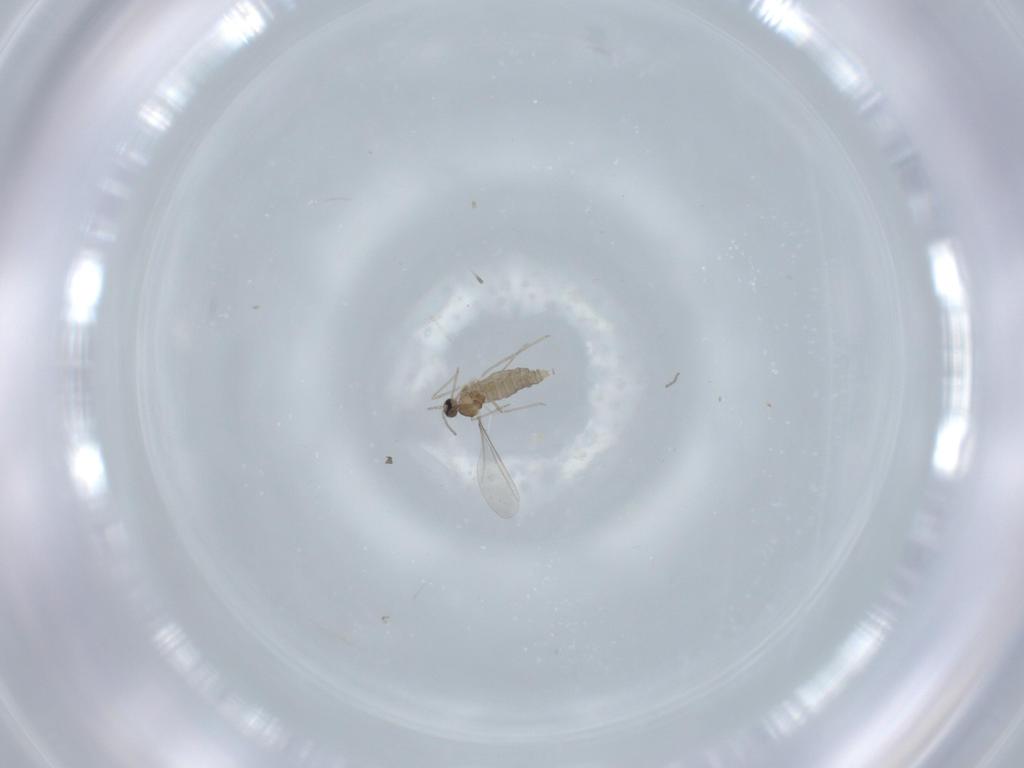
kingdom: Animalia
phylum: Arthropoda
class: Insecta
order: Diptera
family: Cecidomyiidae
